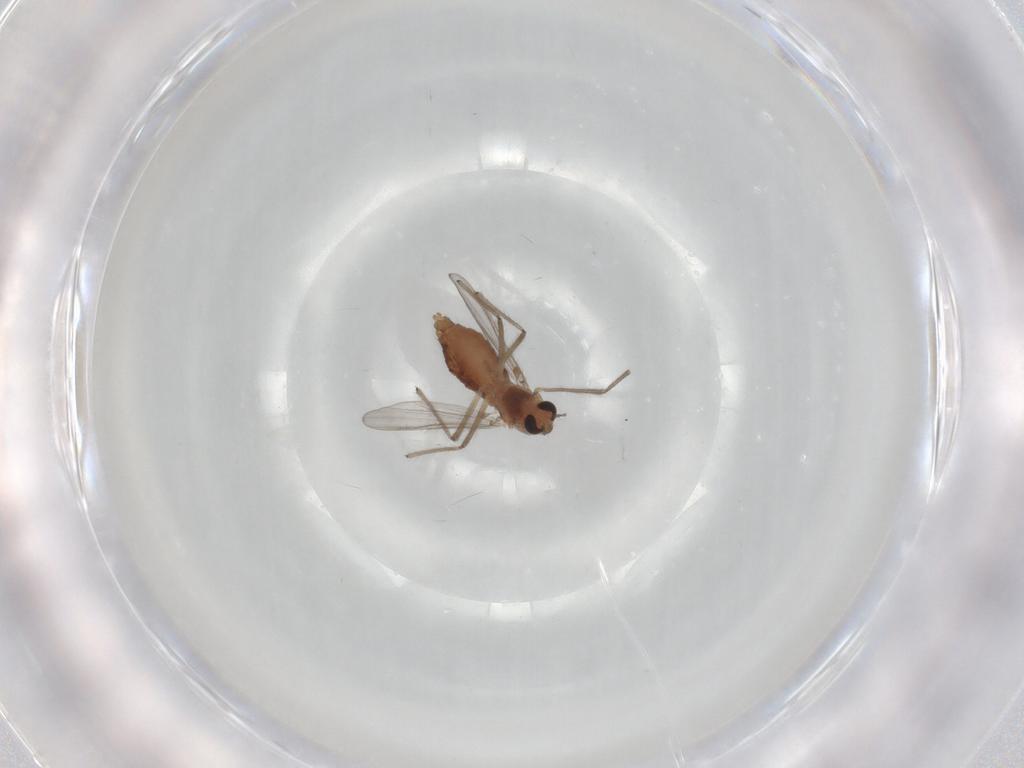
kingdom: Animalia
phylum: Arthropoda
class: Insecta
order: Diptera
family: Chironomidae
